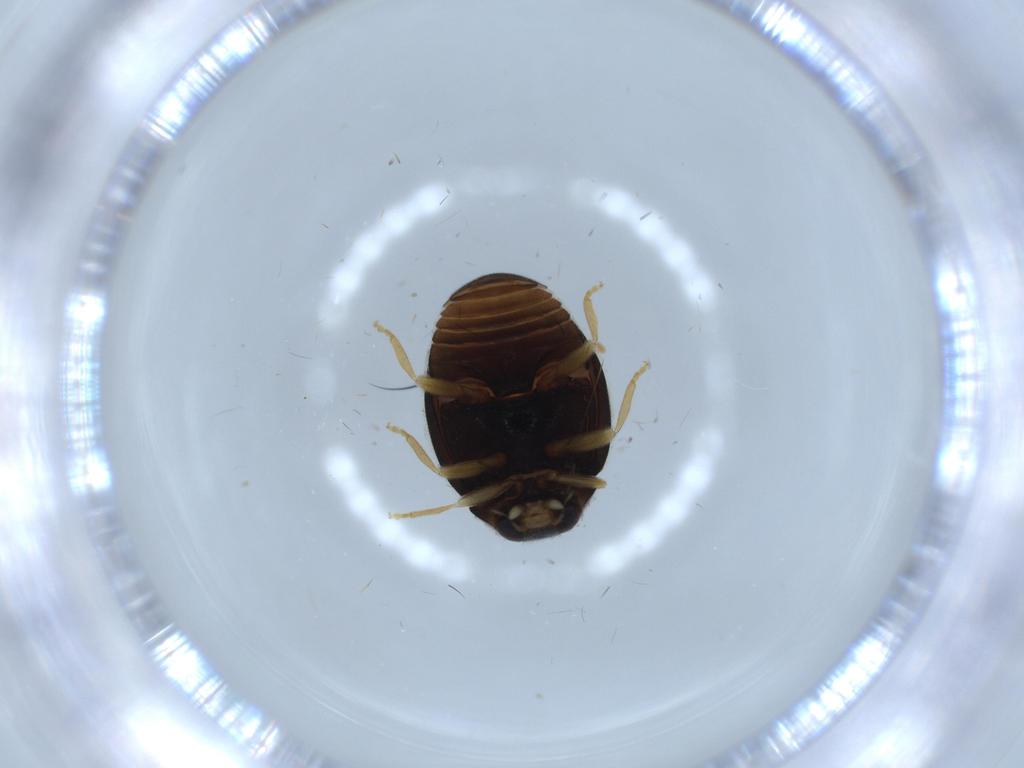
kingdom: Animalia
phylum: Arthropoda
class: Insecta
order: Coleoptera
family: Coccinellidae
